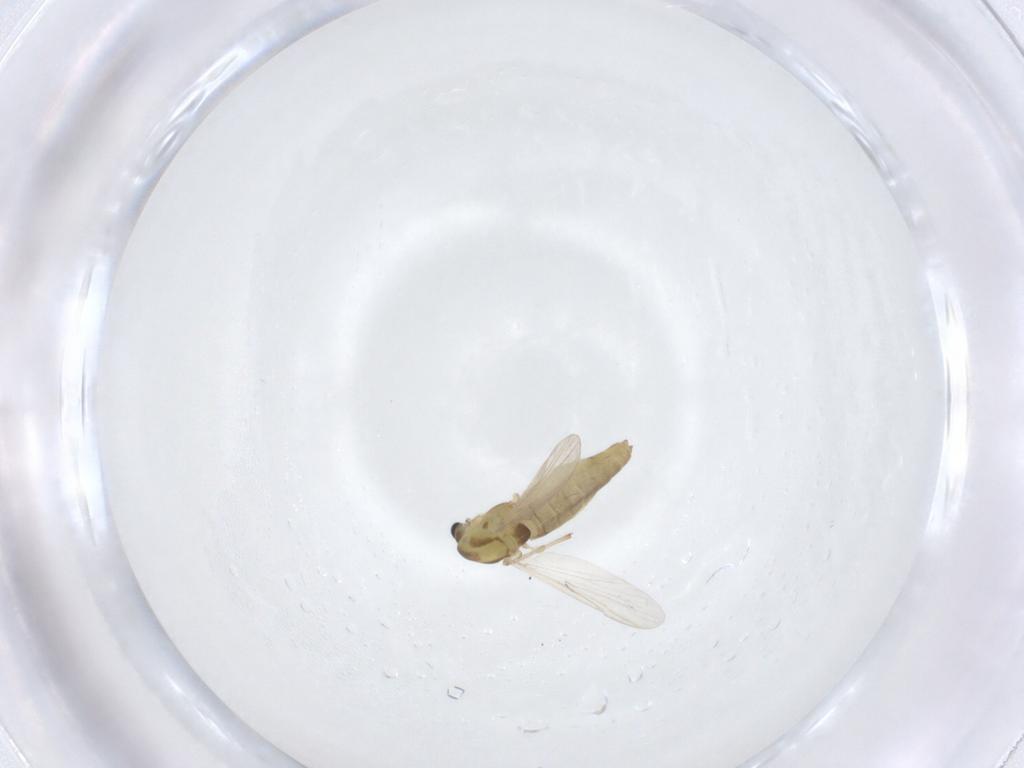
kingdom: Animalia
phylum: Arthropoda
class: Insecta
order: Diptera
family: Chironomidae
